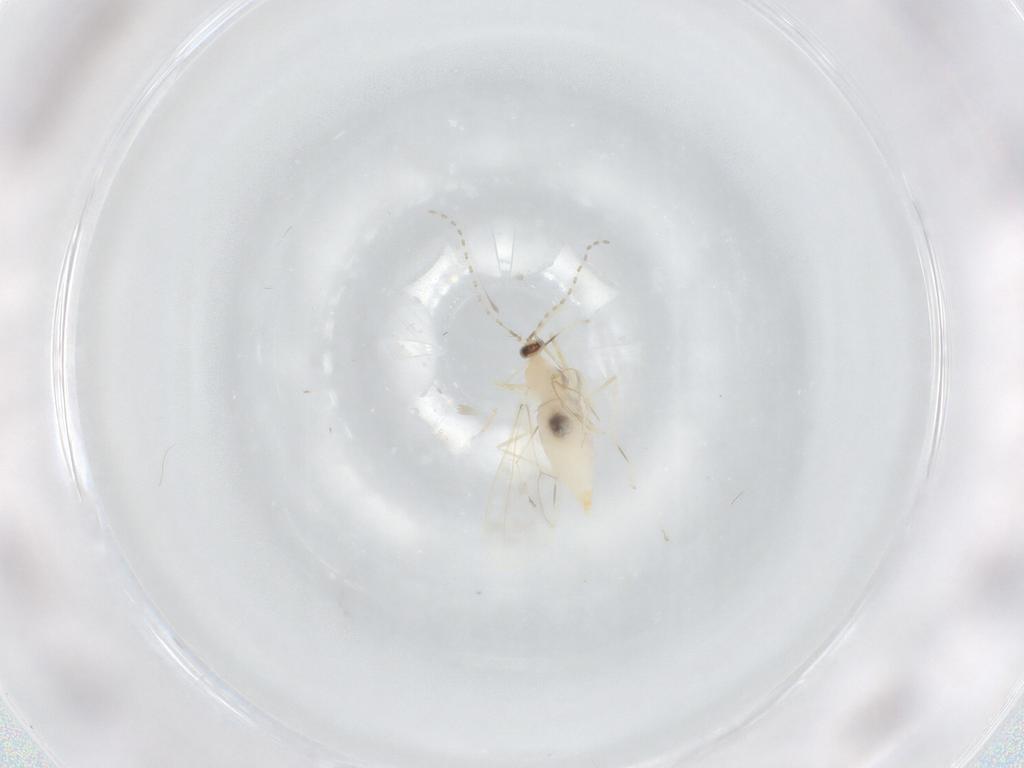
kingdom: Animalia
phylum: Arthropoda
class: Insecta
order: Diptera
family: Cecidomyiidae
